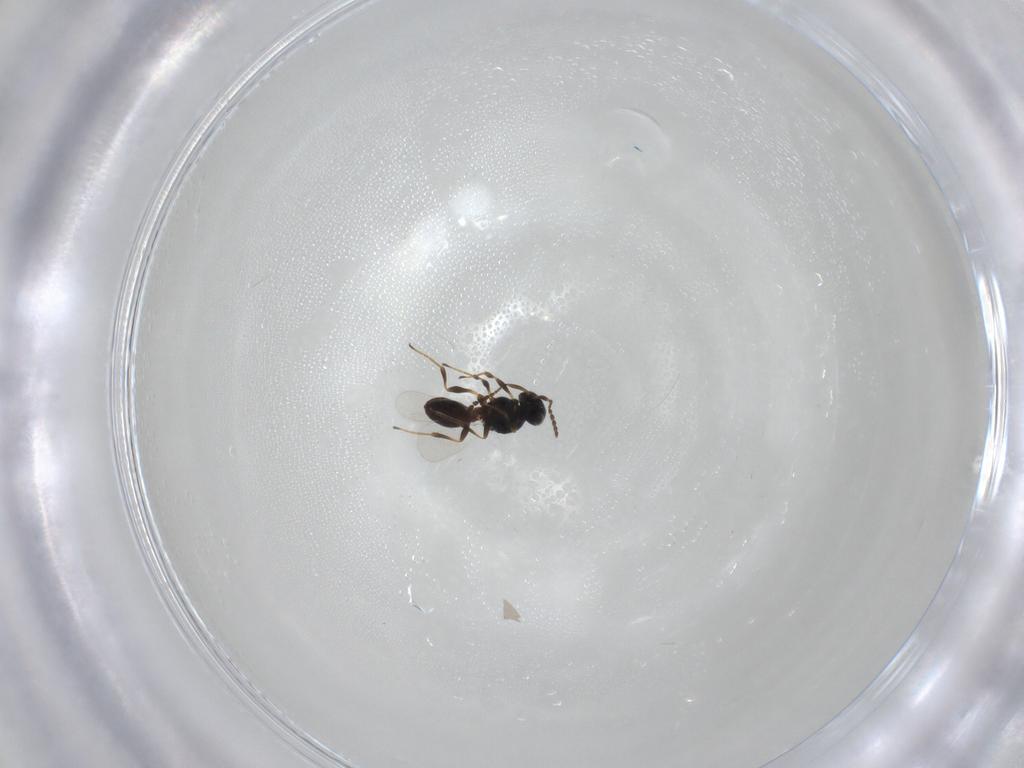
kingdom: Animalia
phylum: Arthropoda
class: Insecta
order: Hymenoptera
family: Platygastridae
